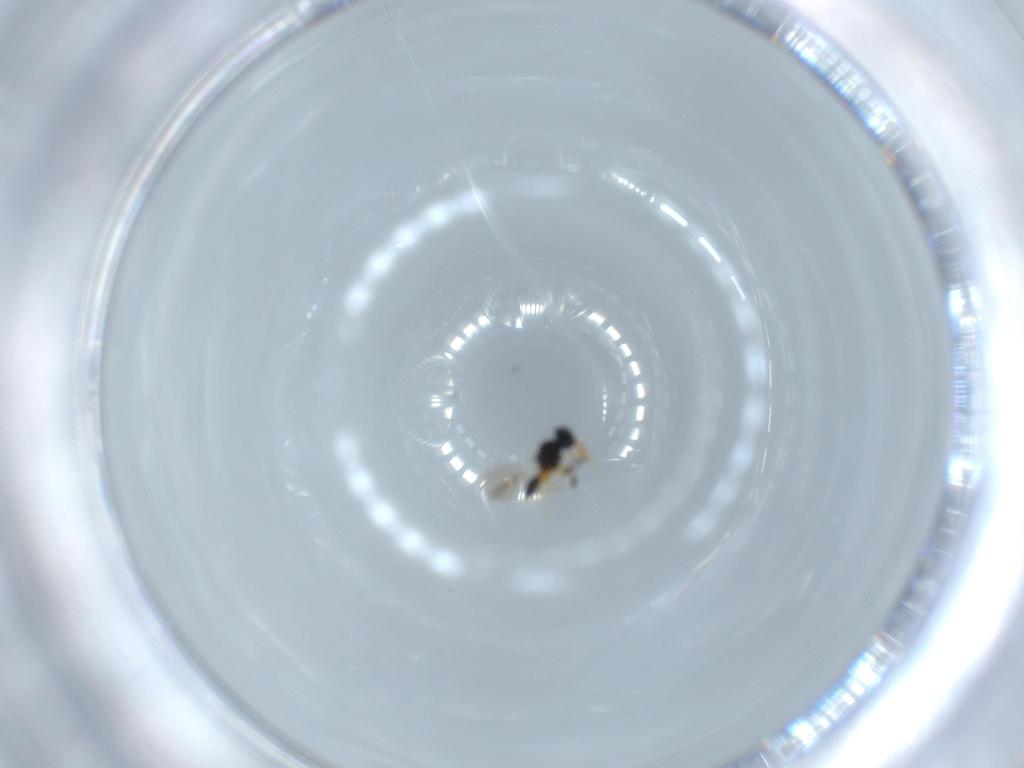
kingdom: Animalia
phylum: Arthropoda
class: Insecta
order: Hymenoptera
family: Platygastridae
